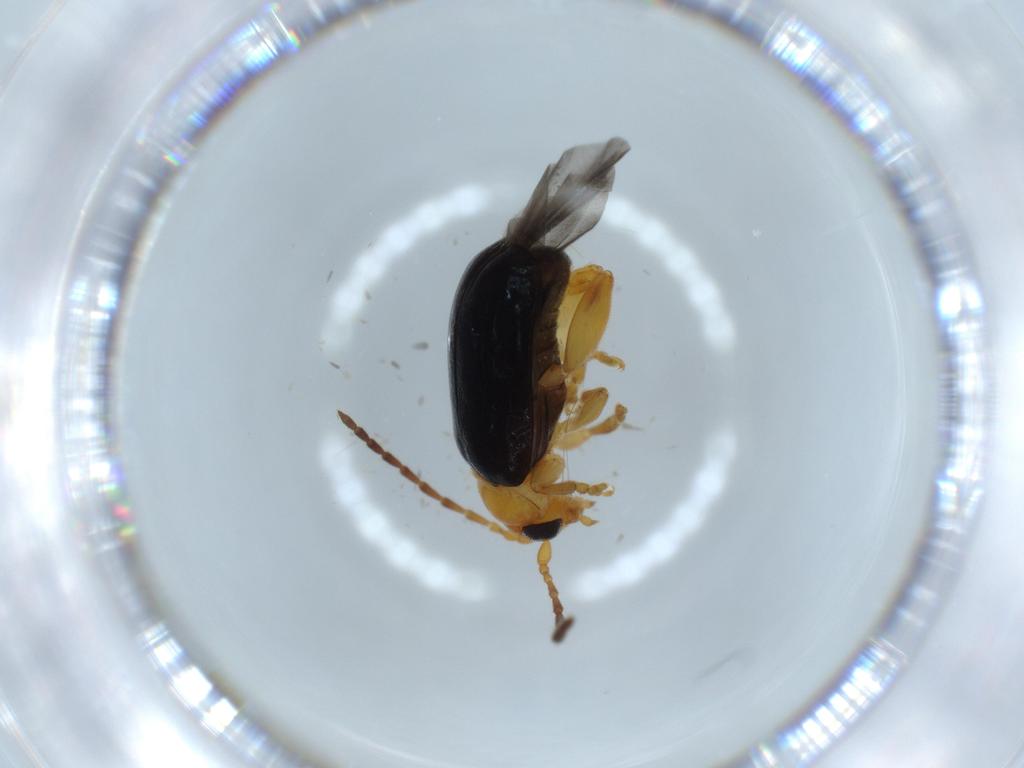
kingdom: Animalia
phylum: Arthropoda
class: Insecta
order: Coleoptera
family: Chrysomelidae
